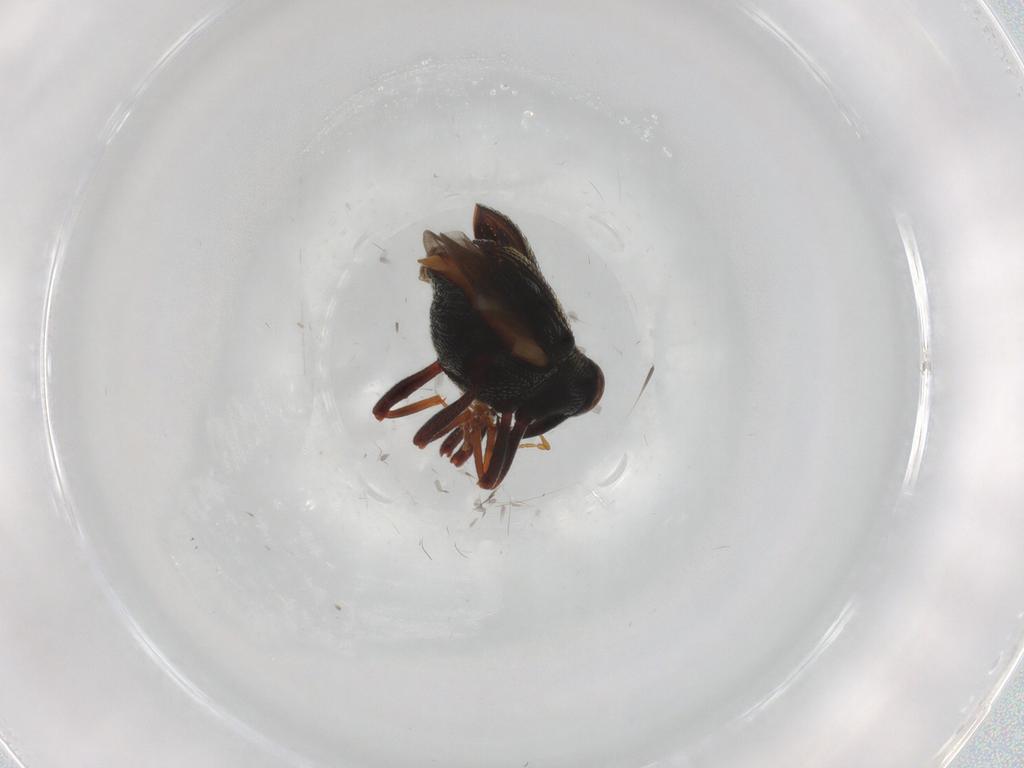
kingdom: Animalia
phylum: Arthropoda
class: Insecta
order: Coleoptera
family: Curculionidae
